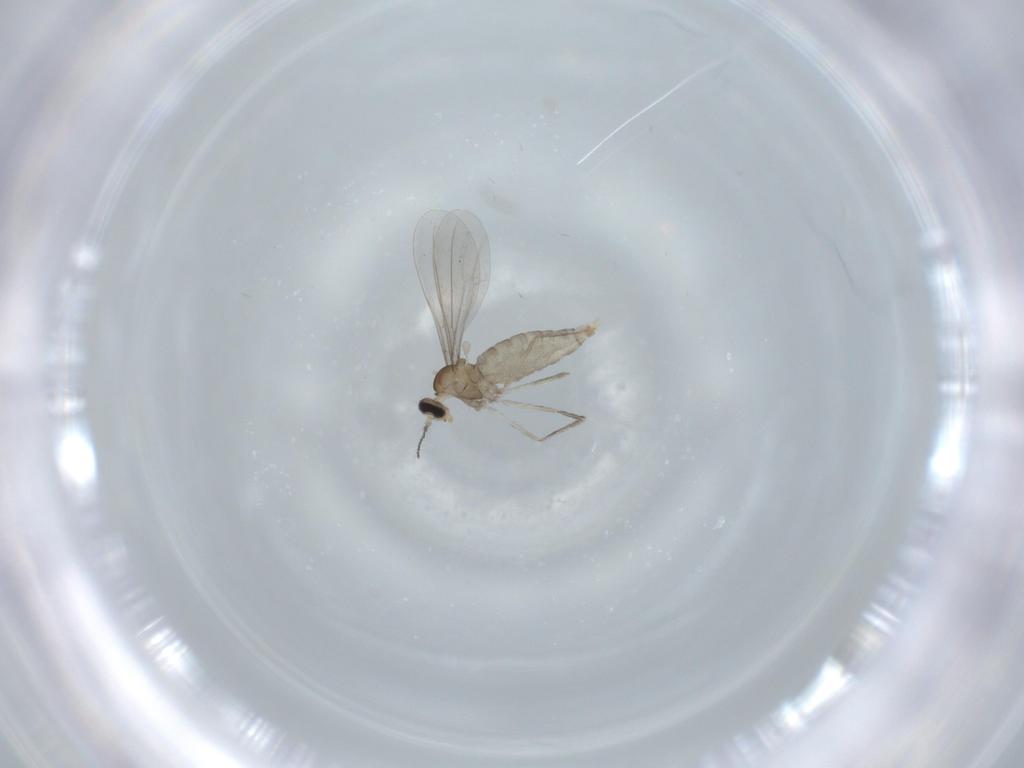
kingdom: Animalia
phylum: Arthropoda
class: Insecta
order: Diptera
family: Cecidomyiidae
